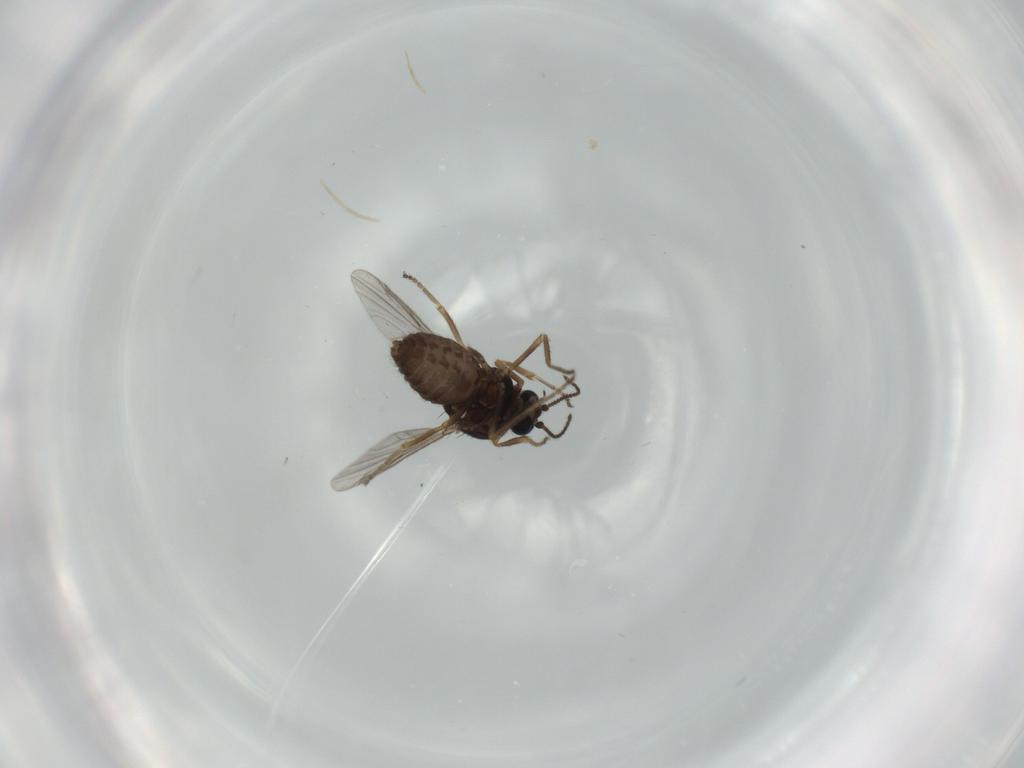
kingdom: Animalia
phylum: Arthropoda
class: Insecta
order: Diptera
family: Ceratopogonidae
